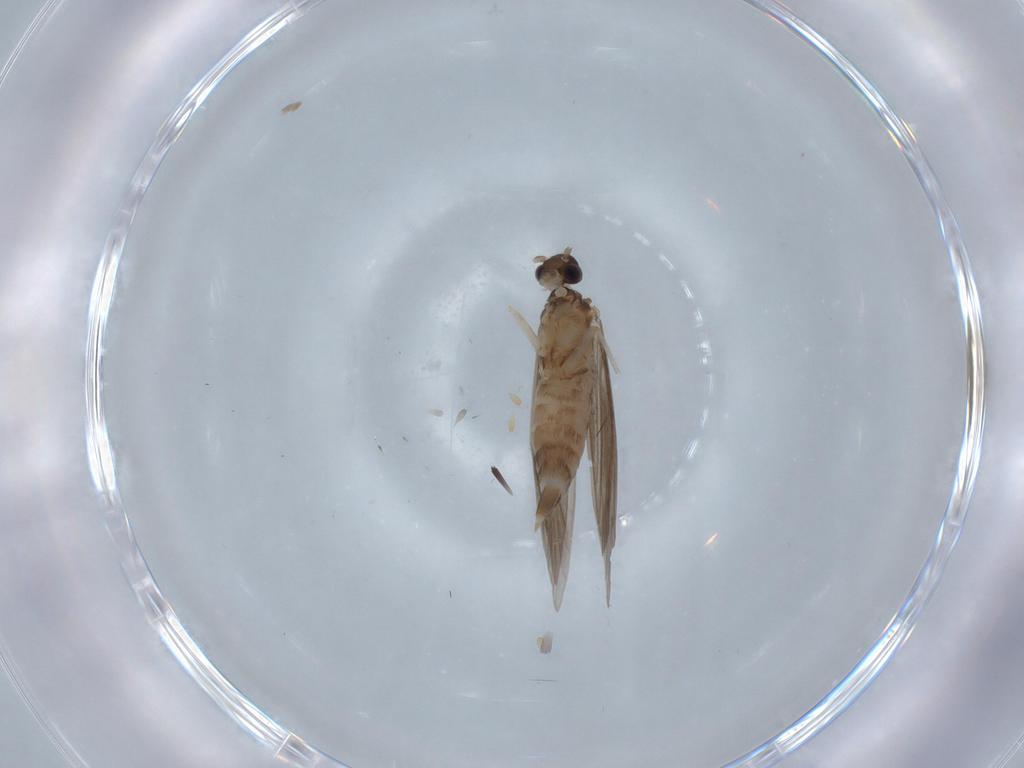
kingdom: Animalia
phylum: Arthropoda
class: Insecta
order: Trichoptera
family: Xiphocentronidae
